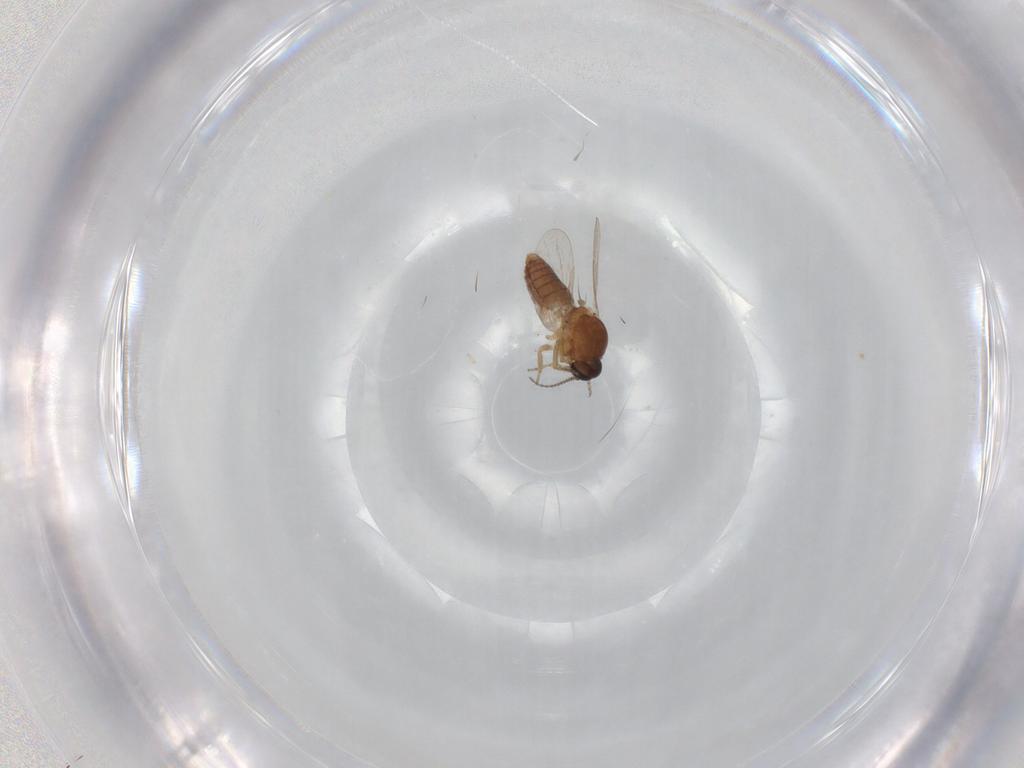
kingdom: Animalia
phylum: Arthropoda
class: Insecta
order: Diptera
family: Ceratopogonidae
